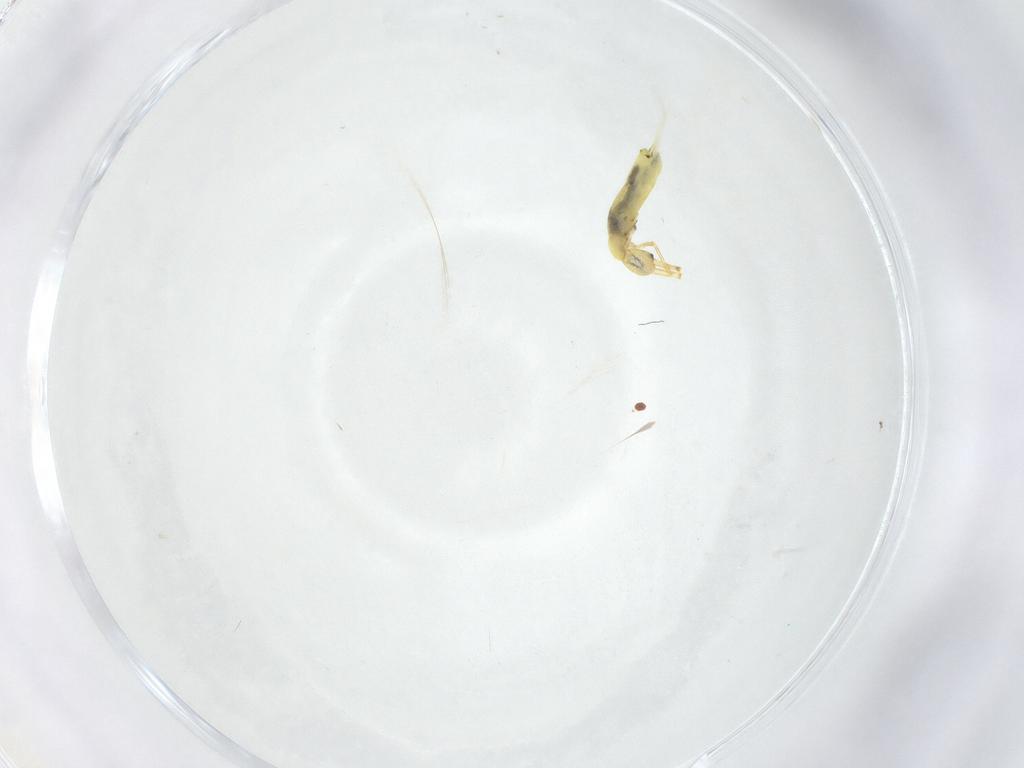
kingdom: Animalia
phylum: Arthropoda
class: Collembola
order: Entomobryomorpha
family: Entomobryidae
